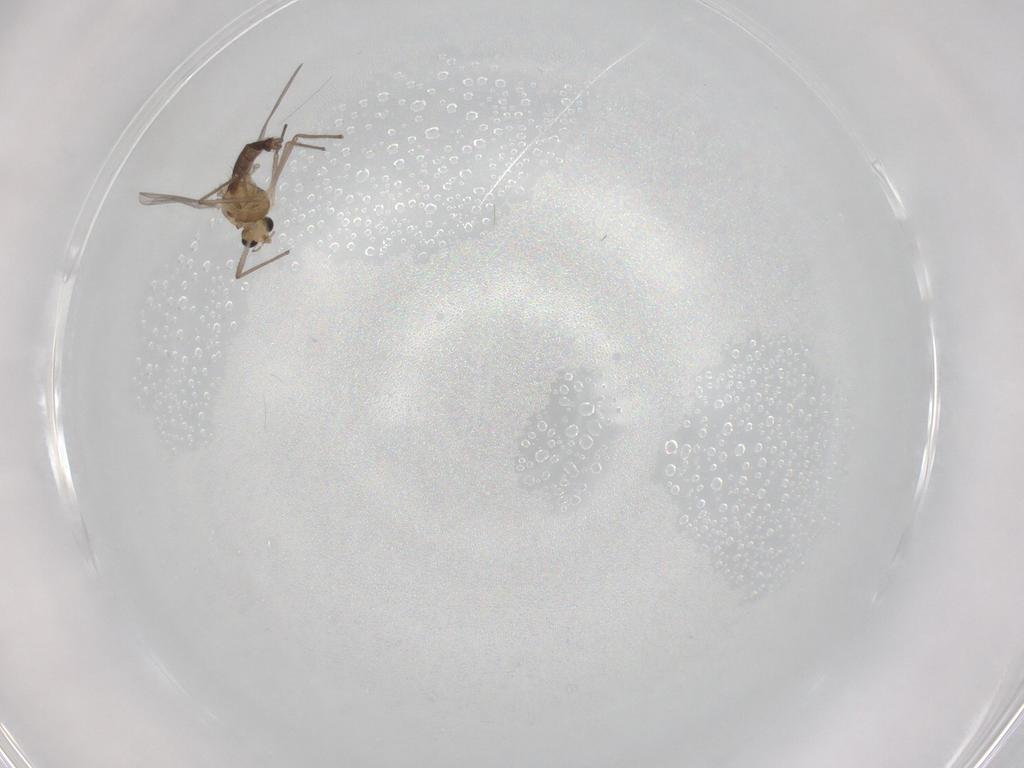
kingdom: Animalia
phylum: Arthropoda
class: Insecta
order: Diptera
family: Chironomidae
